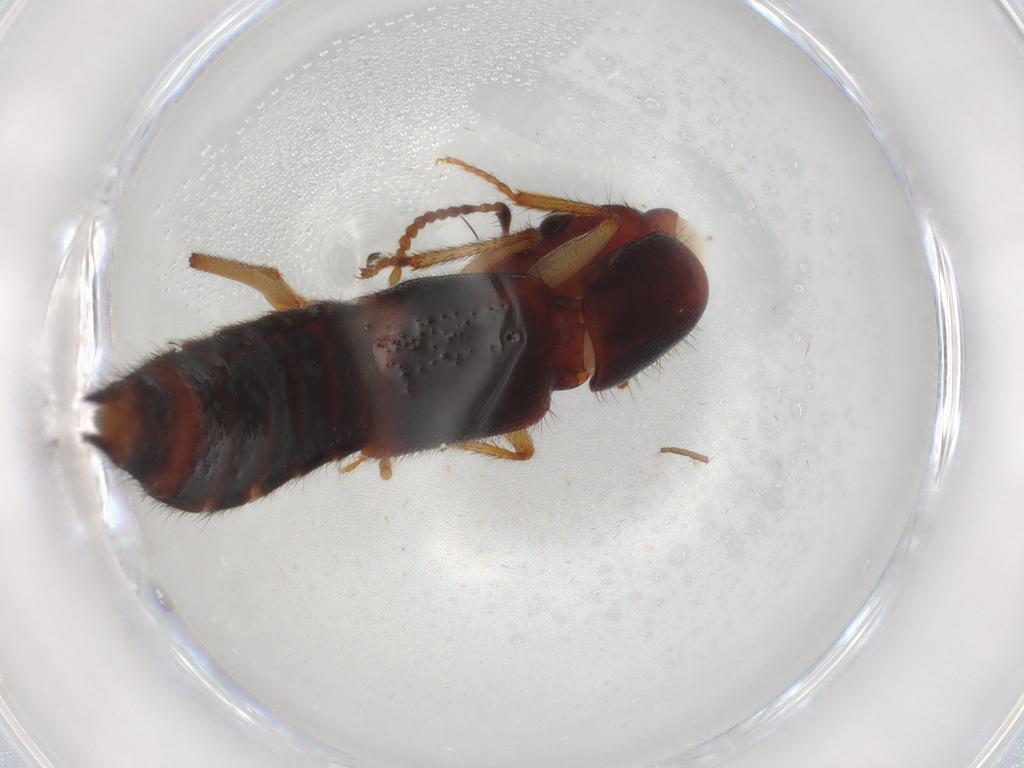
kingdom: Animalia
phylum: Arthropoda
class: Insecta
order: Coleoptera
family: Staphylinidae
